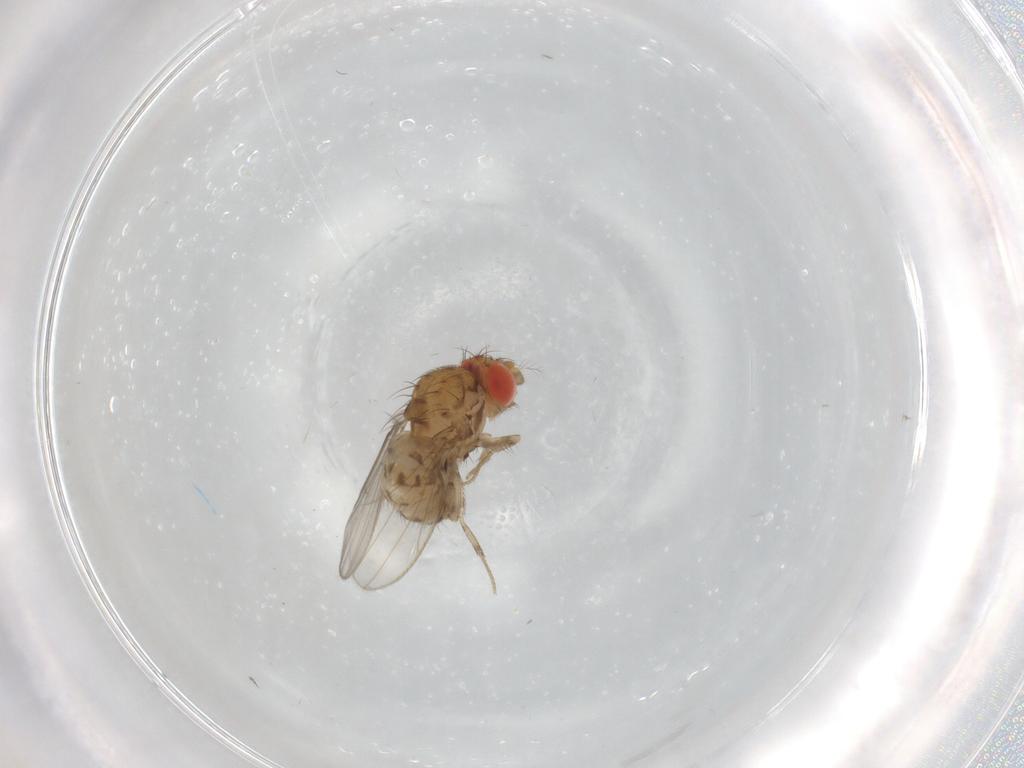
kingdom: Animalia
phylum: Arthropoda
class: Insecta
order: Diptera
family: Drosophilidae
